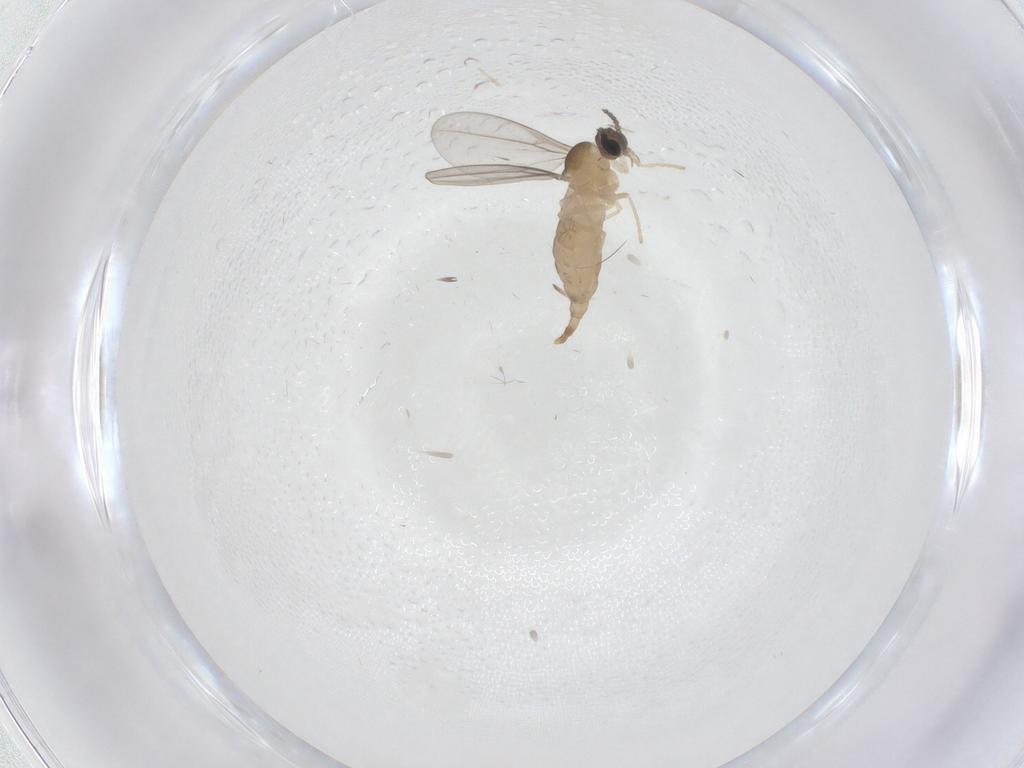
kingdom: Animalia
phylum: Arthropoda
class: Insecta
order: Diptera
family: Cecidomyiidae
